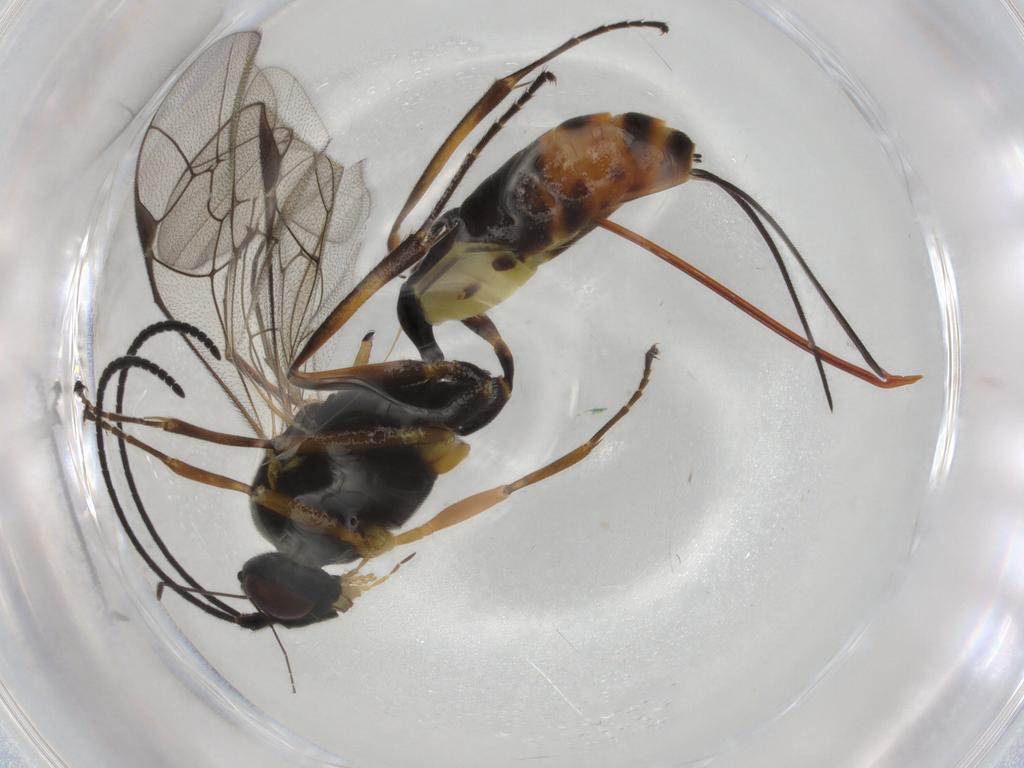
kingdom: Animalia
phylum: Arthropoda
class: Insecta
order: Hymenoptera
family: Ichneumonidae
